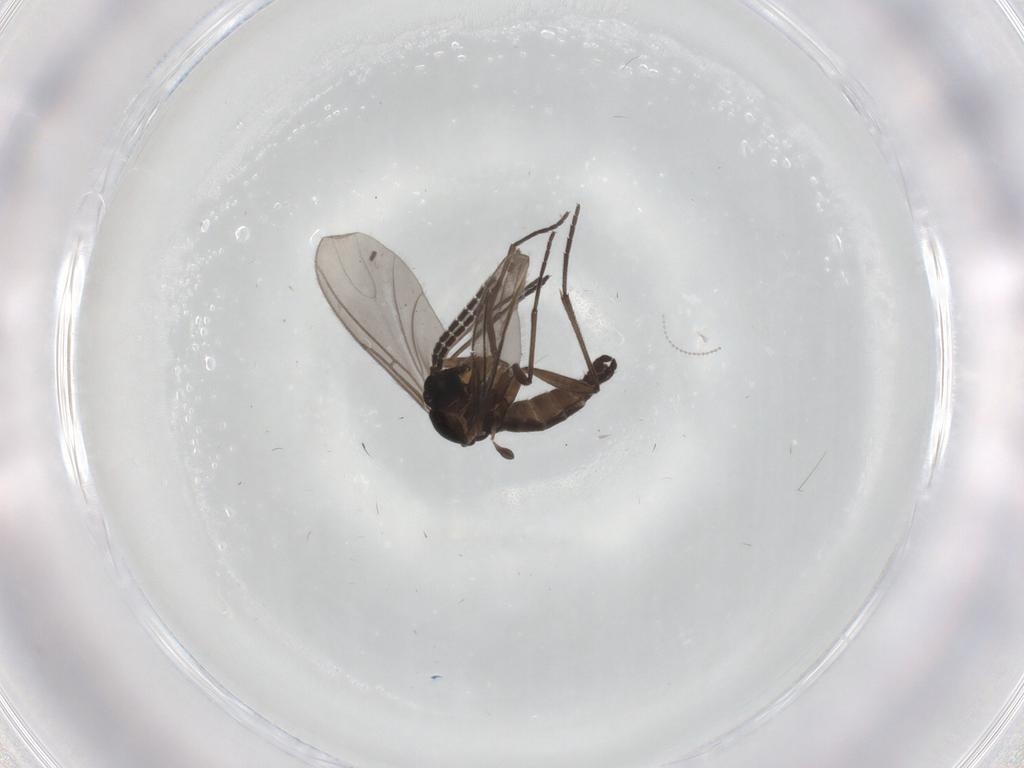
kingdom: Animalia
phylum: Arthropoda
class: Insecta
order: Diptera
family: Sciaridae
